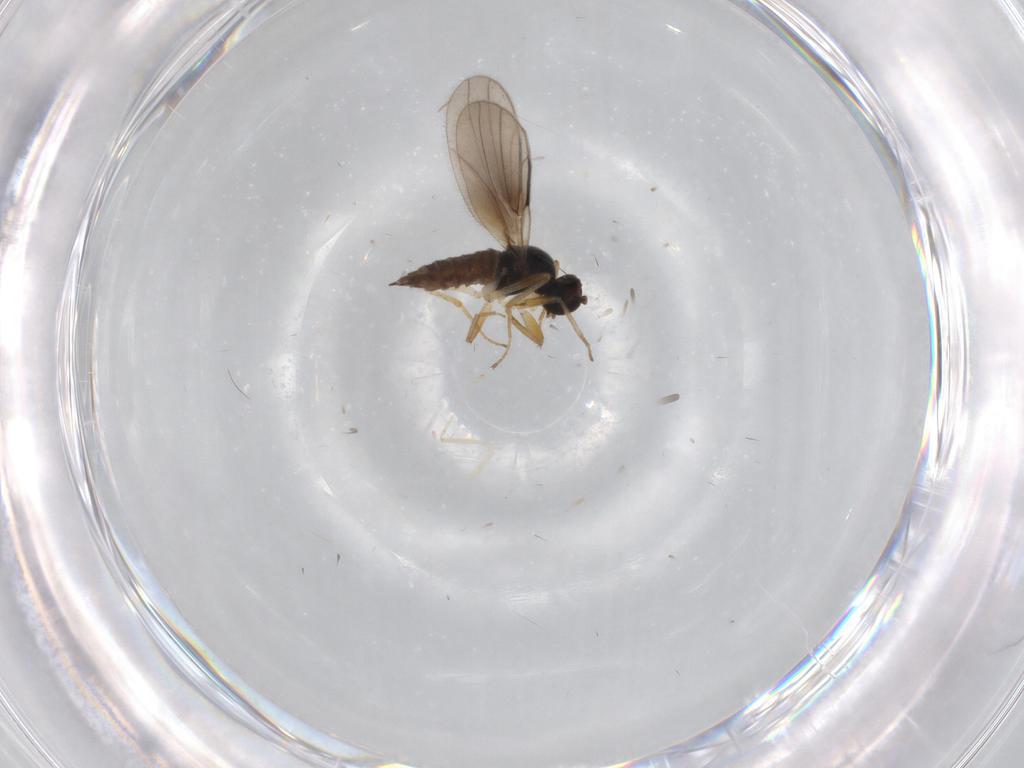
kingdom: Animalia
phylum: Arthropoda
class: Insecta
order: Diptera
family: Hybotidae
